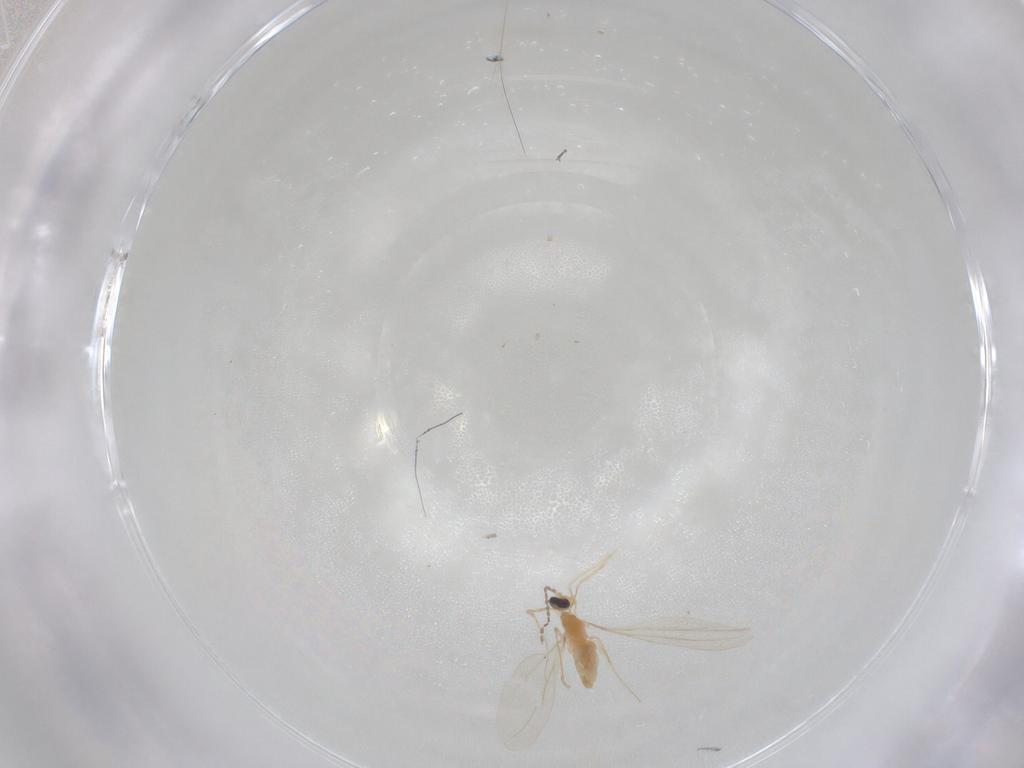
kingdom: Animalia
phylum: Arthropoda
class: Insecta
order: Diptera
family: Cecidomyiidae
